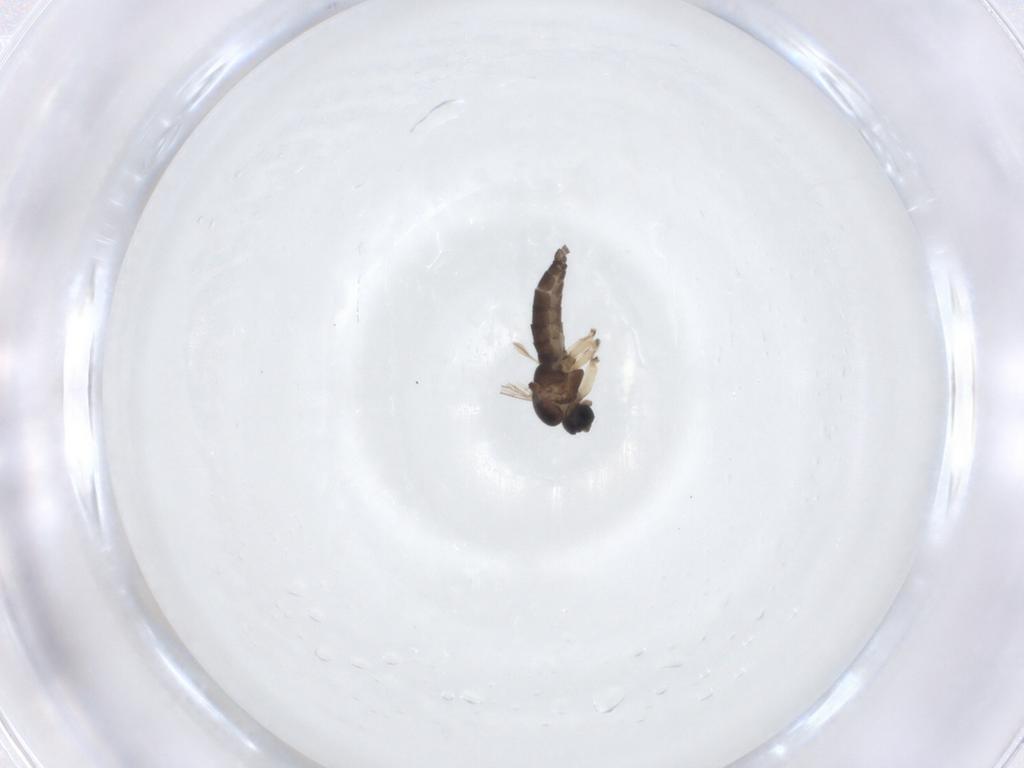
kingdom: Animalia
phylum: Arthropoda
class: Insecta
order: Diptera
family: Sciaridae
